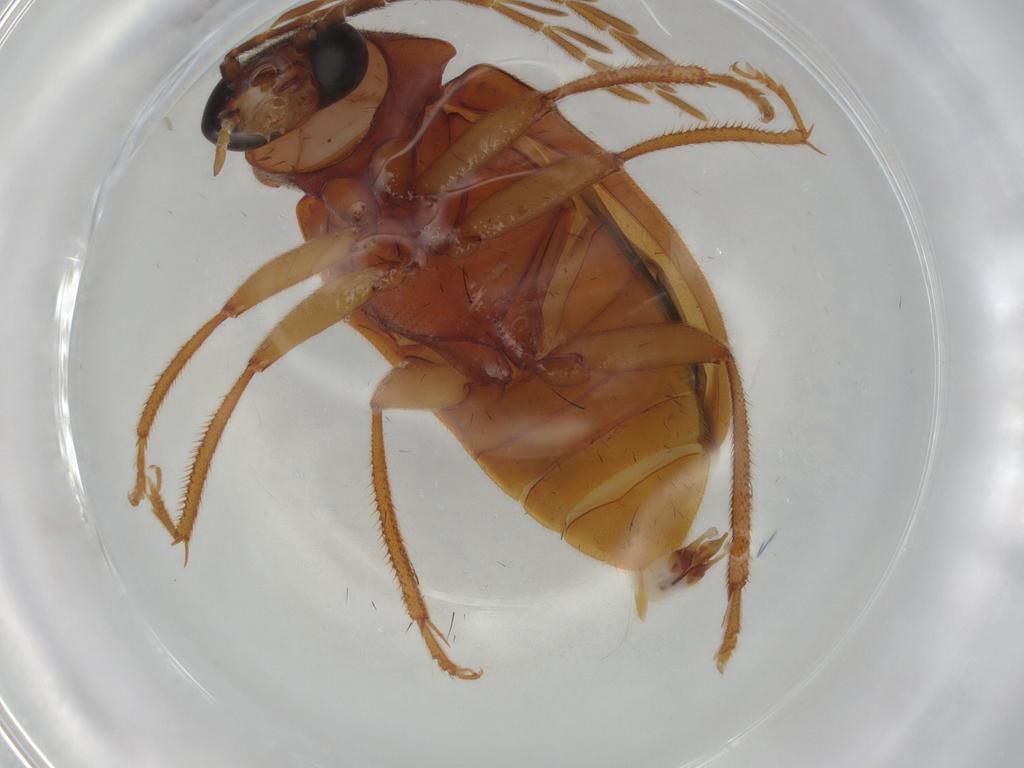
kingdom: Animalia
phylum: Arthropoda
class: Insecta
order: Coleoptera
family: Ptilodactylidae
